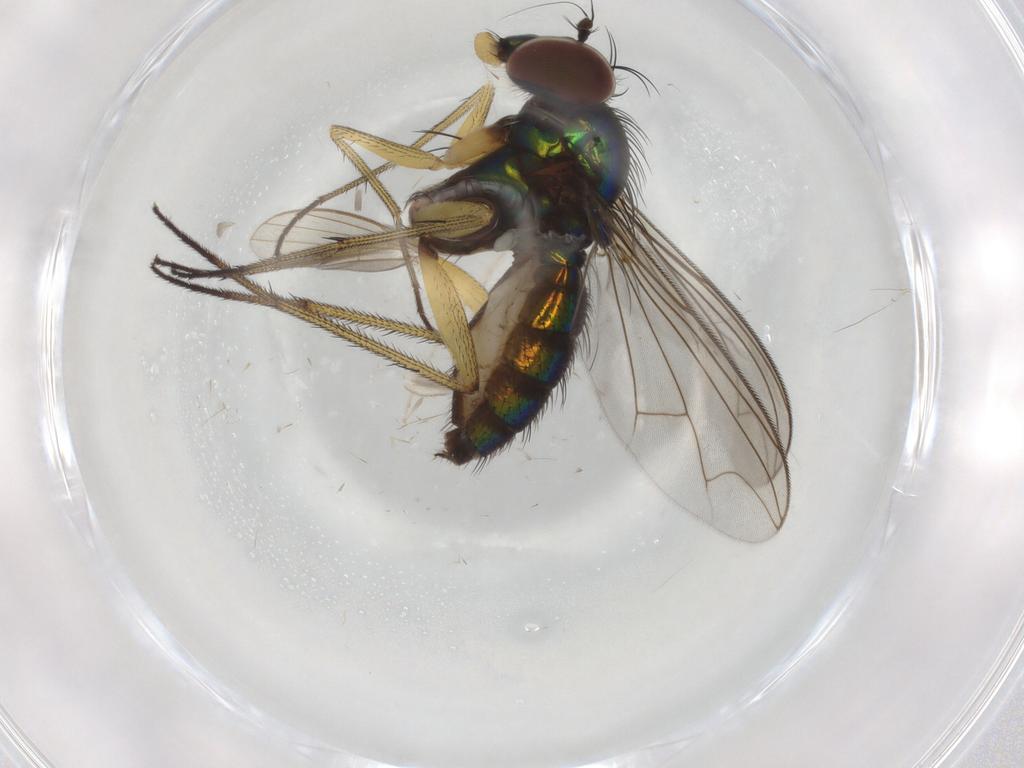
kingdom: Animalia
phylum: Arthropoda
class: Insecta
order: Diptera
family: Dolichopodidae
